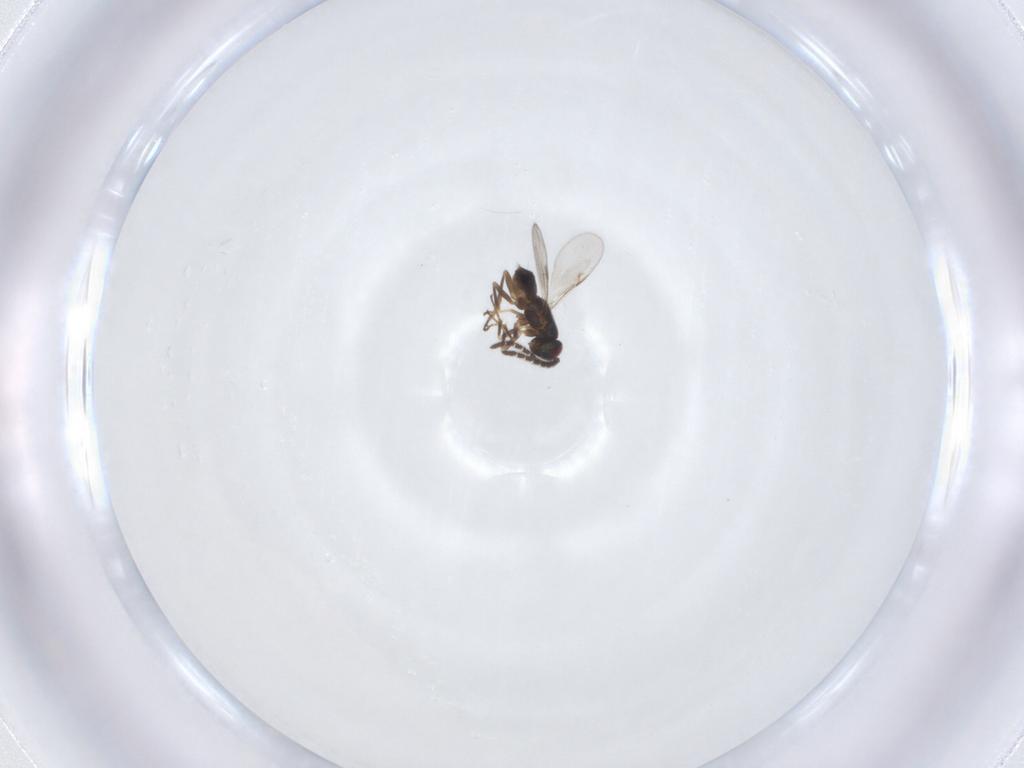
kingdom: Animalia
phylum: Arthropoda
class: Insecta
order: Hymenoptera
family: Encyrtidae
